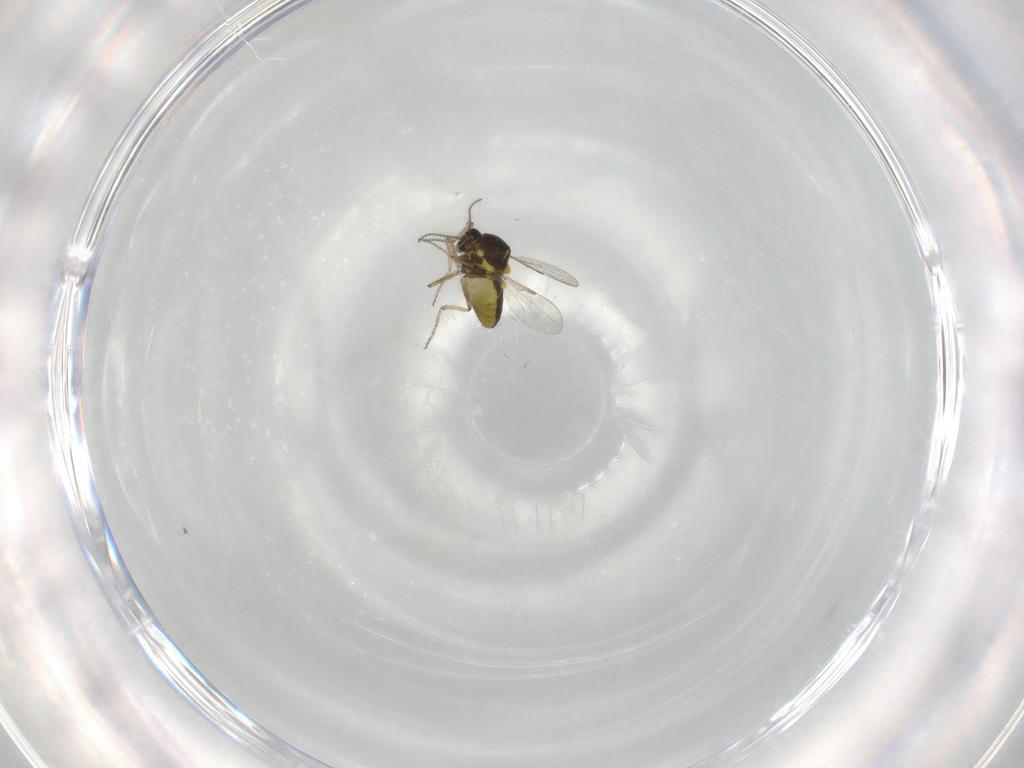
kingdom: Animalia
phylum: Arthropoda
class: Insecta
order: Diptera
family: Ceratopogonidae
